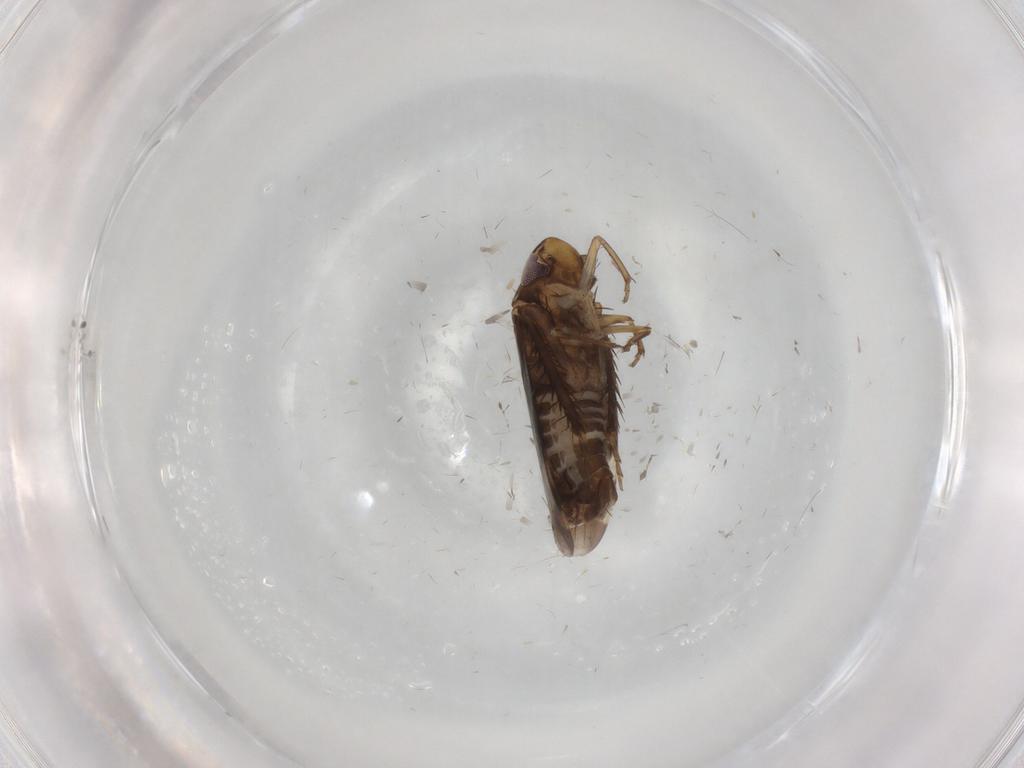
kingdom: Animalia
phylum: Arthropoda
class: Insecta
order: Hemiptera
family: Cicadellidae
